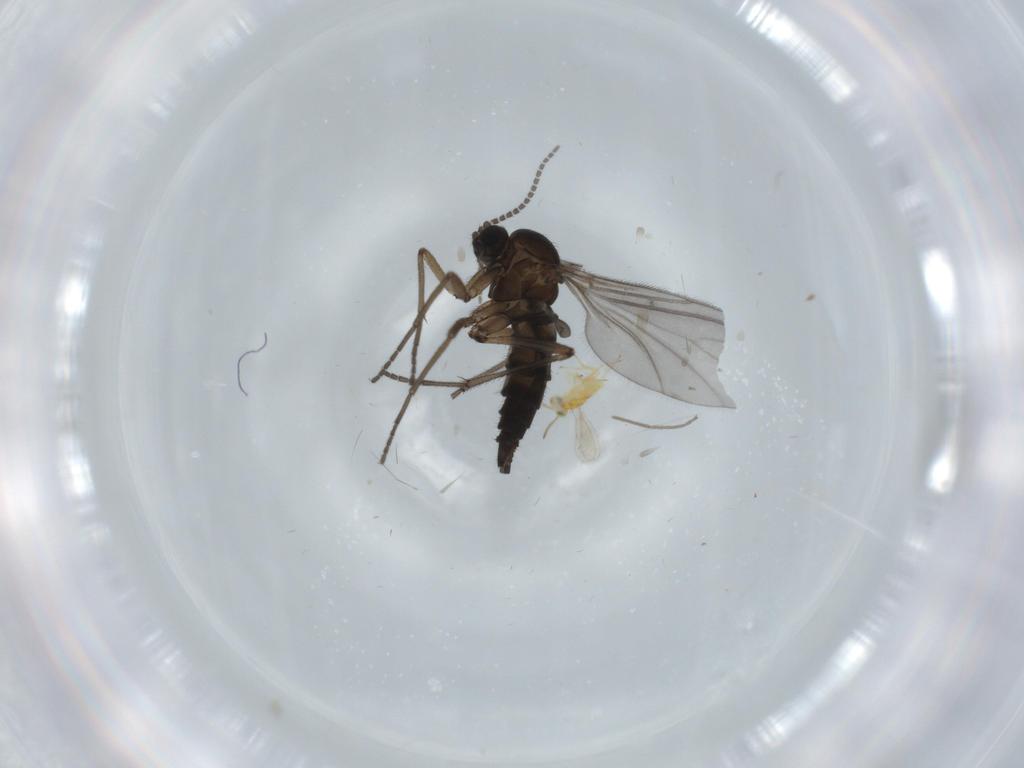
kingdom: Animalia
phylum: Arthropoda
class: Insecta
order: Diptera
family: Sciaridae
